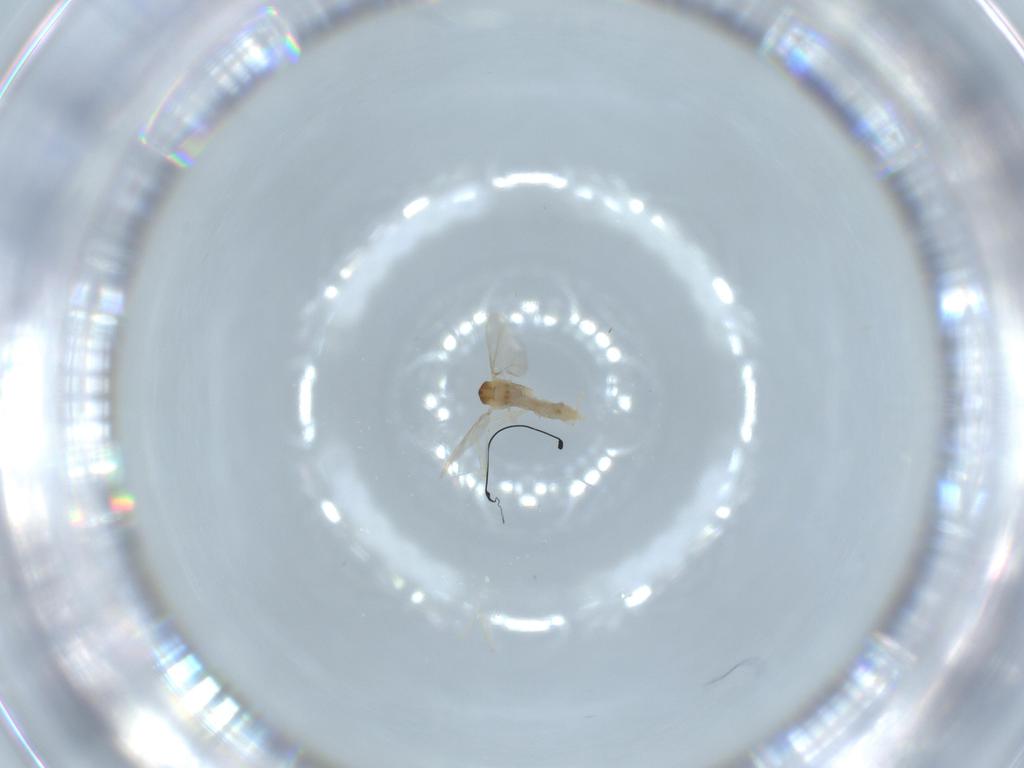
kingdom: Animalia
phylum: Arthropoda
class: Insecta
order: Diptera
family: Cecidomyiidae
